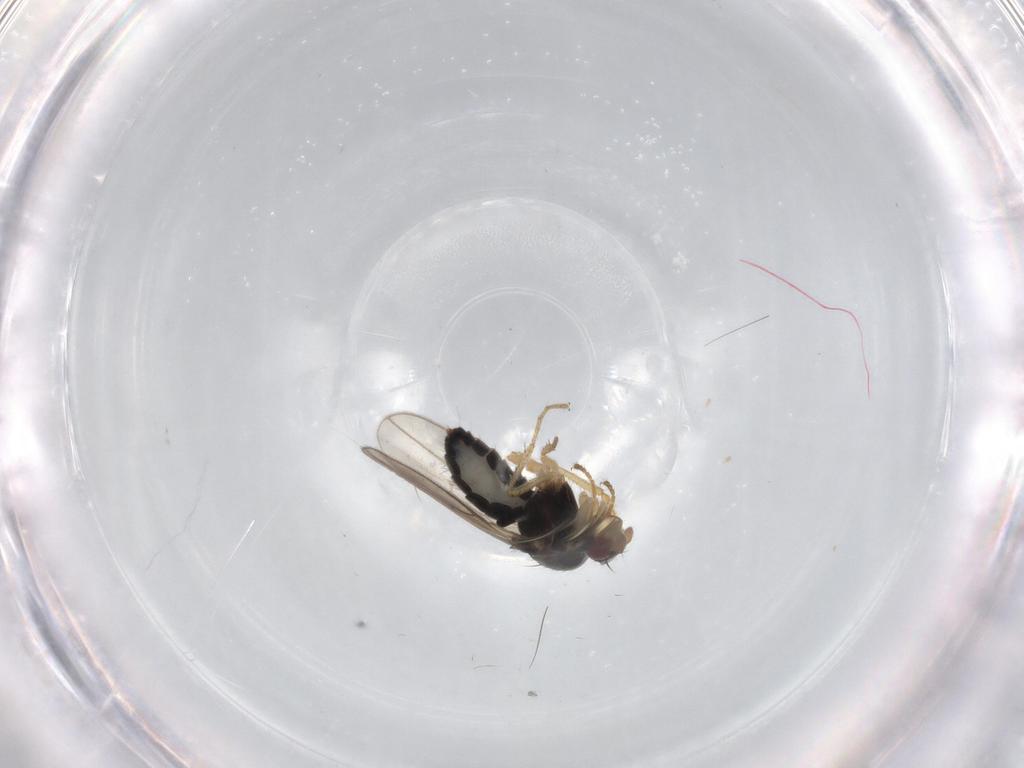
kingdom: Animalia
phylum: Arthropoda
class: Insecta
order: Diptera
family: Sphaeroceridae
